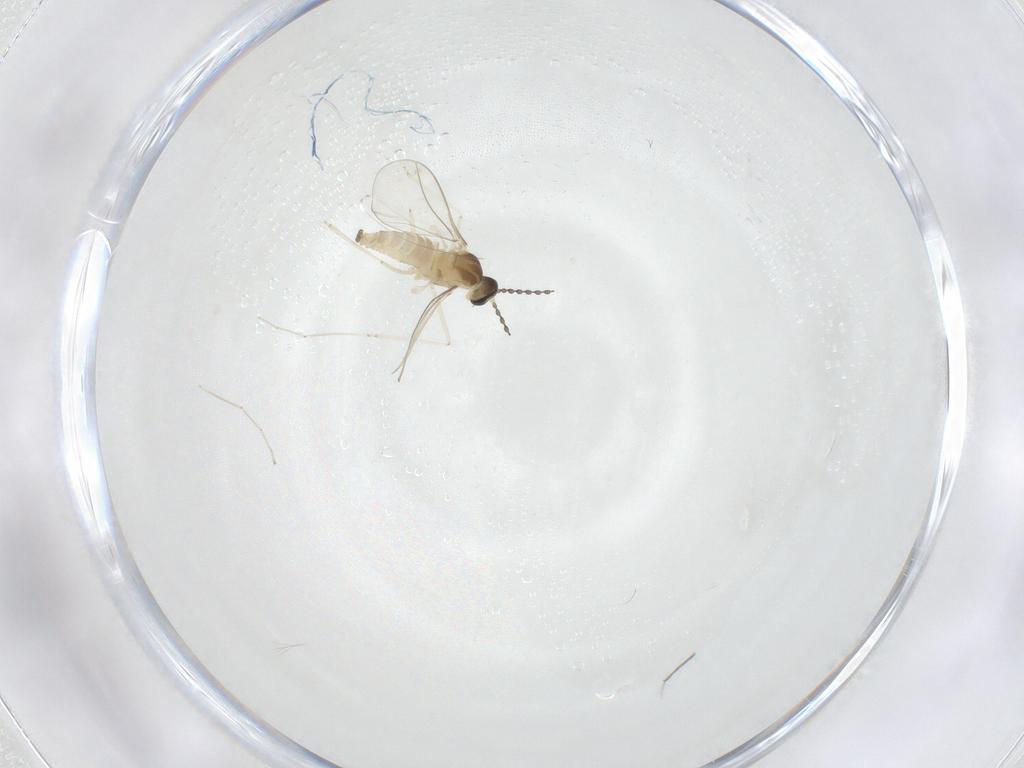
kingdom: Animalia
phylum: Arthropoda
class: Insecta
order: Diptera
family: Cecidomyiidae
